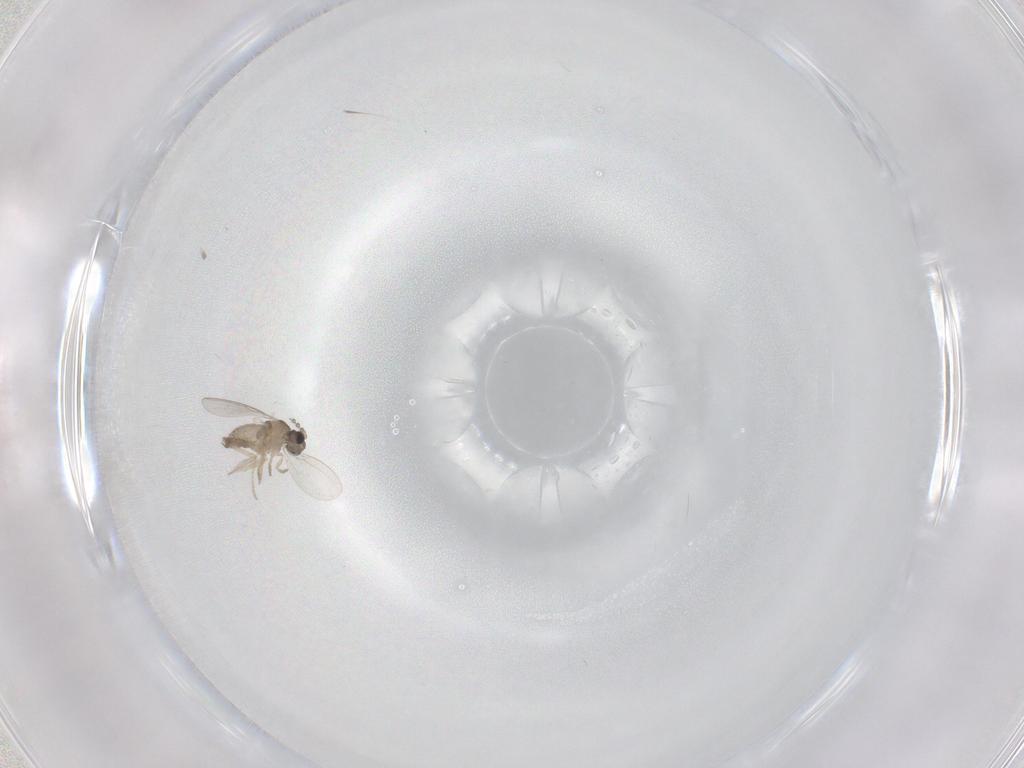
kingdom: Animalia
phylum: Arthropoda
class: Insecta
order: Diptera
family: Cecidomyiidae
